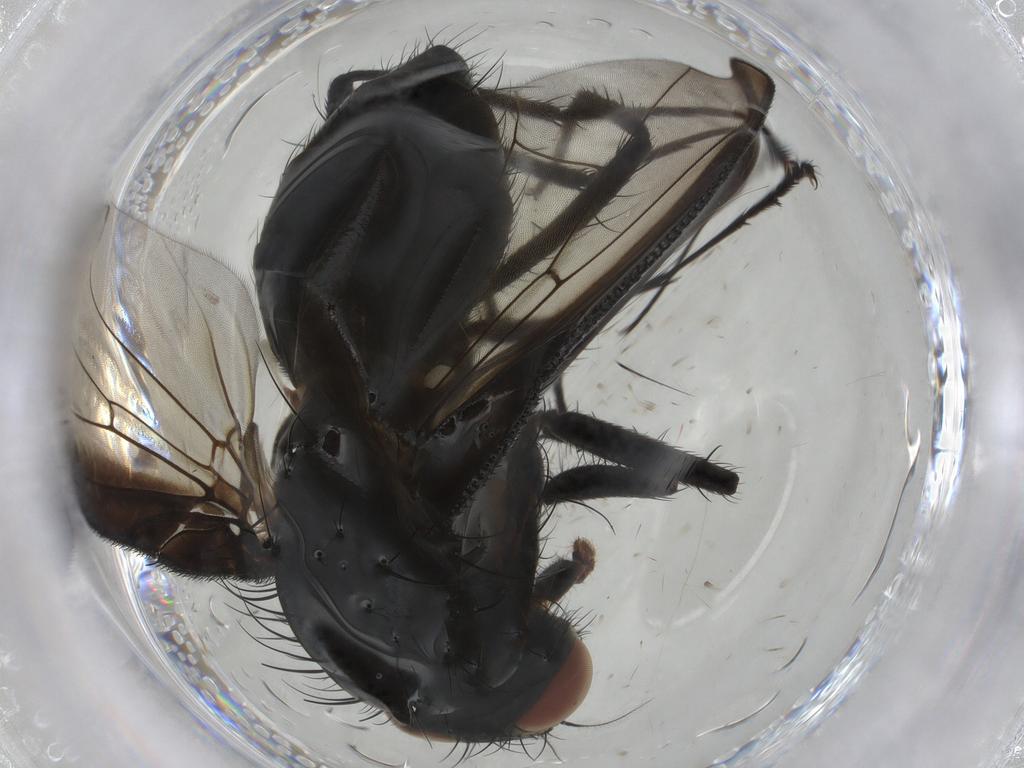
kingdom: Animalia
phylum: Arthropoda
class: Insecta
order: Diptera
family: Anthomyiidae
